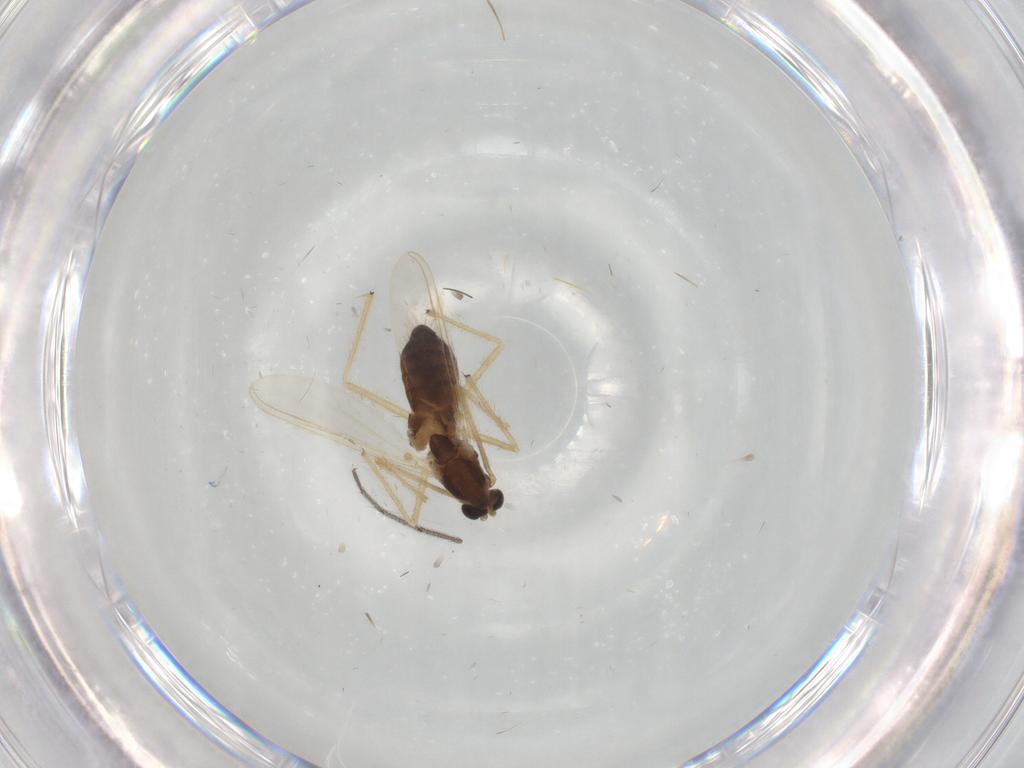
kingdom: Animalia
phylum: Arthropoda
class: Insecta
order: Diptera
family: Chironomidae
